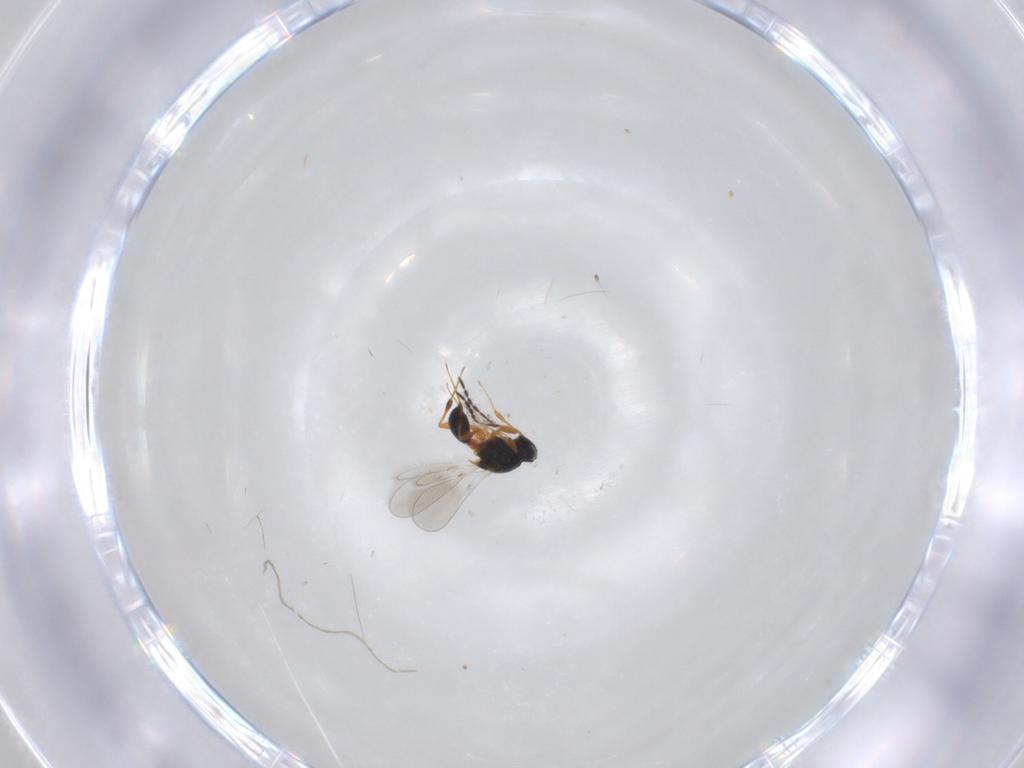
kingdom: Animalia
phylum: Arthropoda
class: Insecta
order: Hymenoptera
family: Platygastridae
